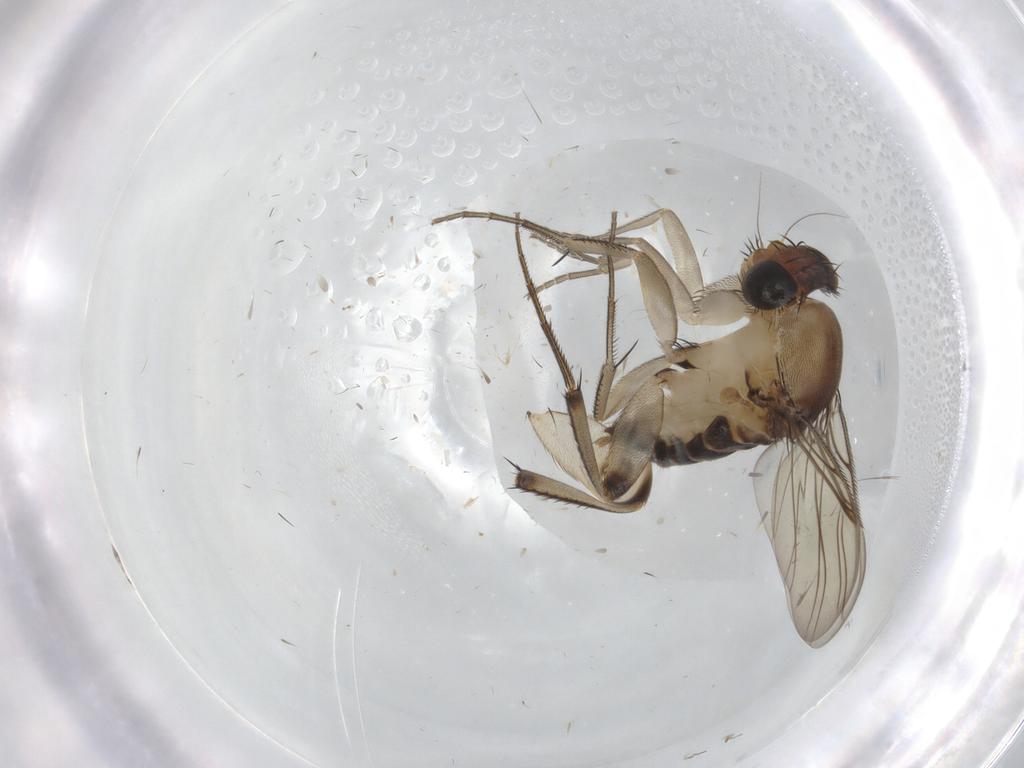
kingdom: Animalia
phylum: Arthropoda
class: Insecta
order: Diptera
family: Phoridae
